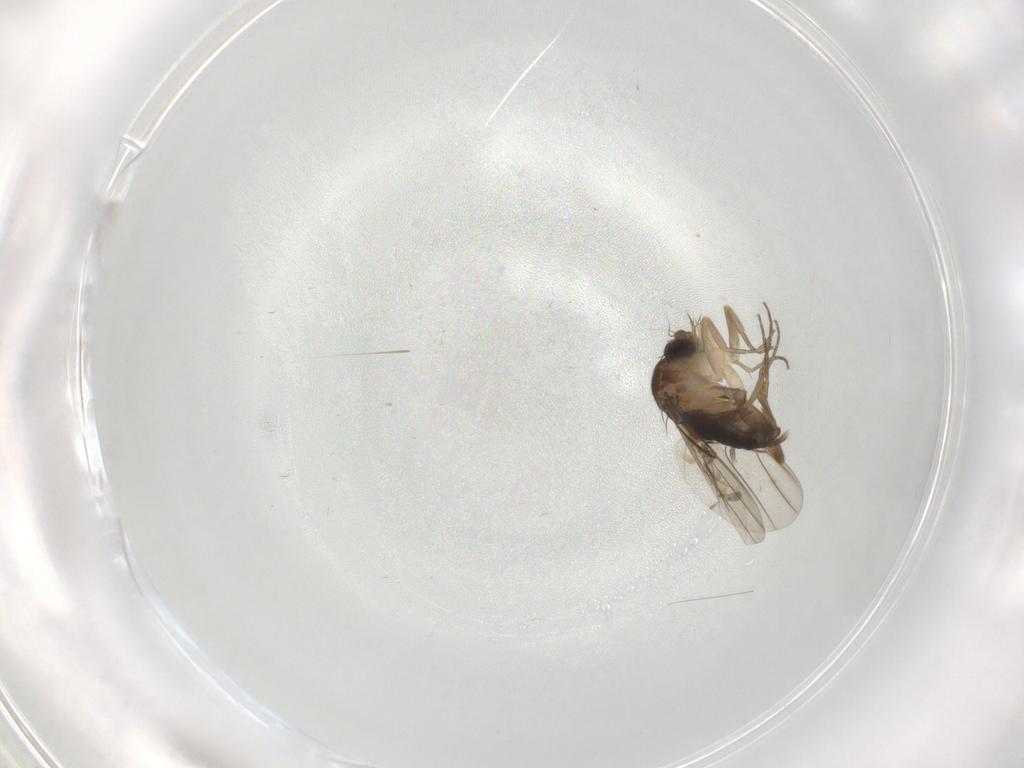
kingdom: Animalia
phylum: Arthropoda
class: Insecta
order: Diptera
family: Phoridae
